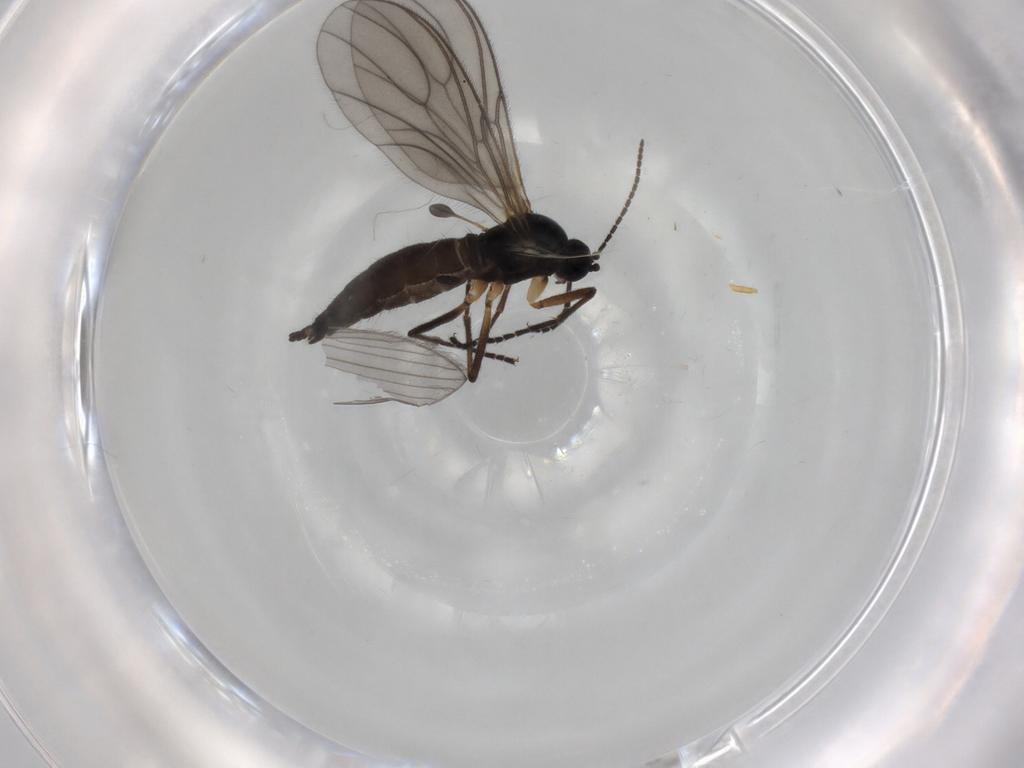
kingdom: Animalia
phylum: Arthropoda
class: Insecta
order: Diptera
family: Sciaridae
